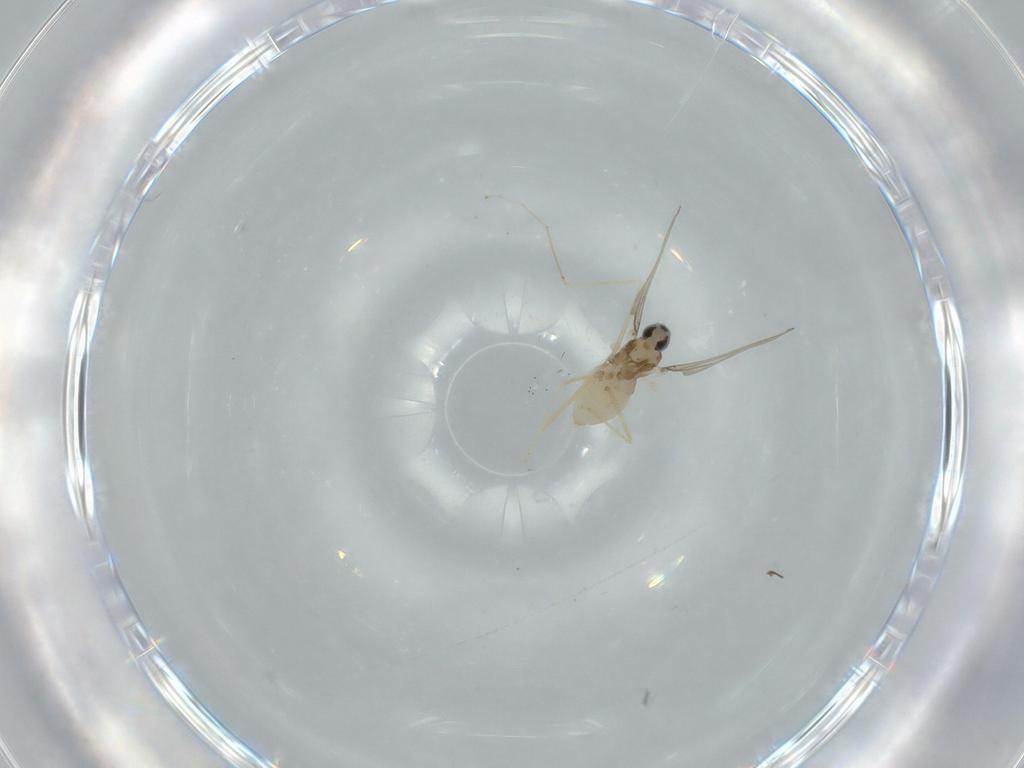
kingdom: Animalia
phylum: Arthropoda
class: Insecta
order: Diptera
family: Cecidomyiidae
